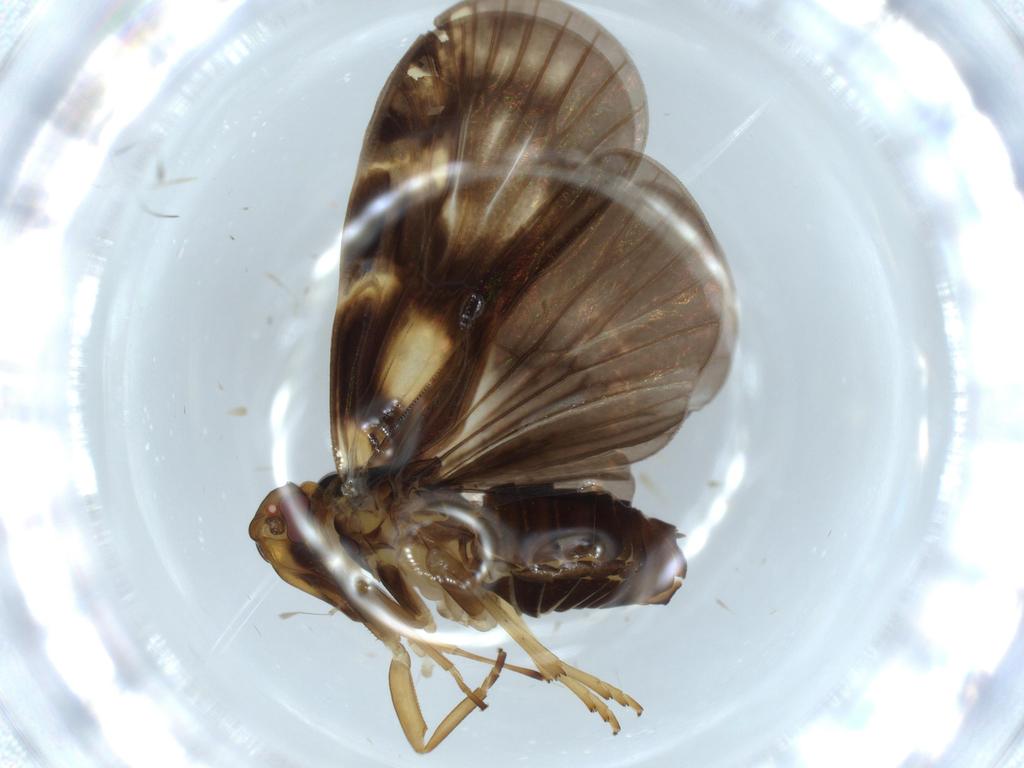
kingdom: Animalia
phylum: Arthropoda
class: Insecta
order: Hemiptera
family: Cixiidae
